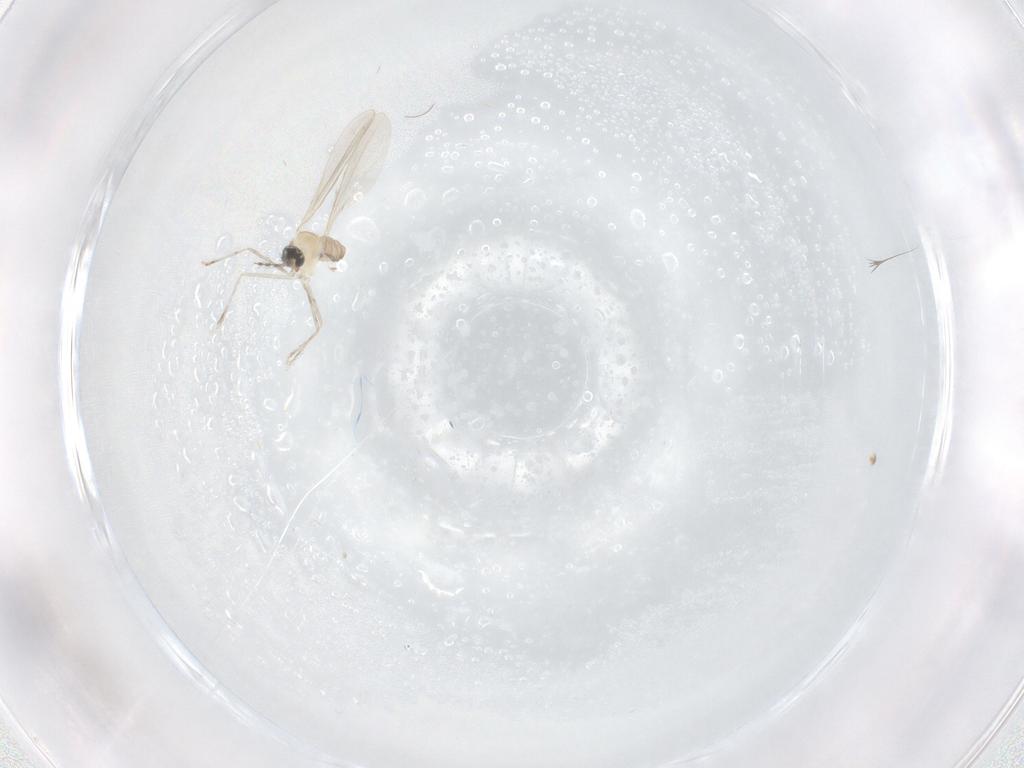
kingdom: Animalia
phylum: Arthropoda
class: Insecta
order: Diptera
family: Cecidomyiidae
